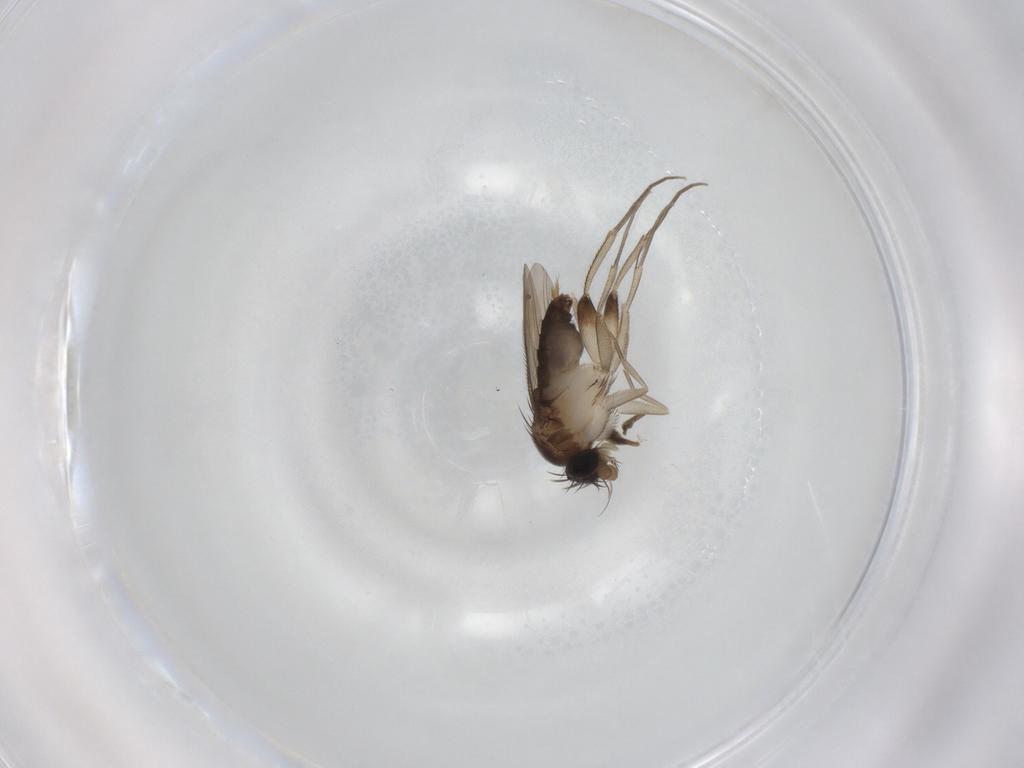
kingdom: Animalia
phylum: Arthropoda
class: Insecta
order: Diptera
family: Phoridae
